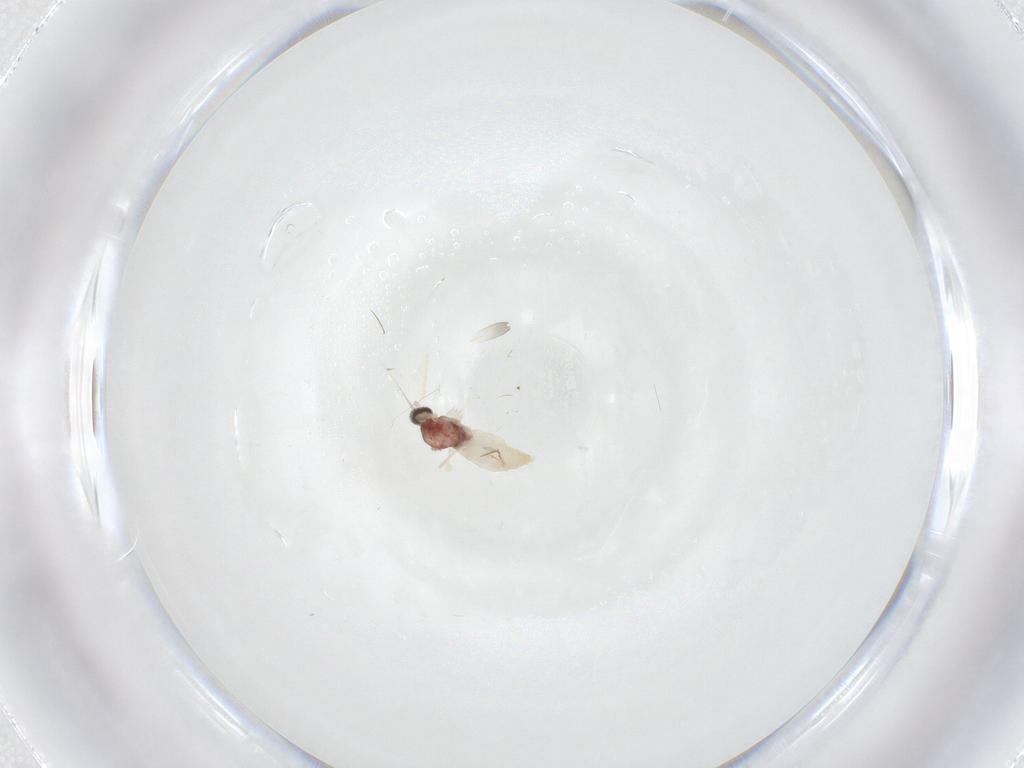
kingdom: Animalia
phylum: Arthropoda
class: Insecta
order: Diptera
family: Cecidomyiidae
